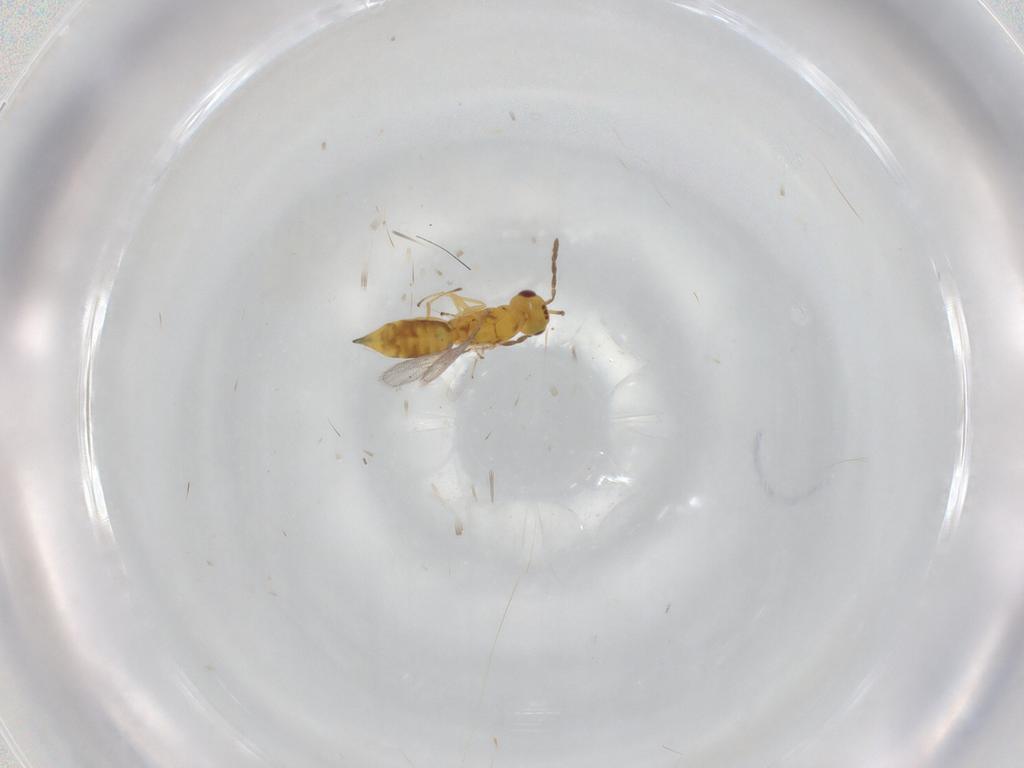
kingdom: Animalia
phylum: Arthropoda
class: Insecta
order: Hymenoptera
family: Eulophidae
